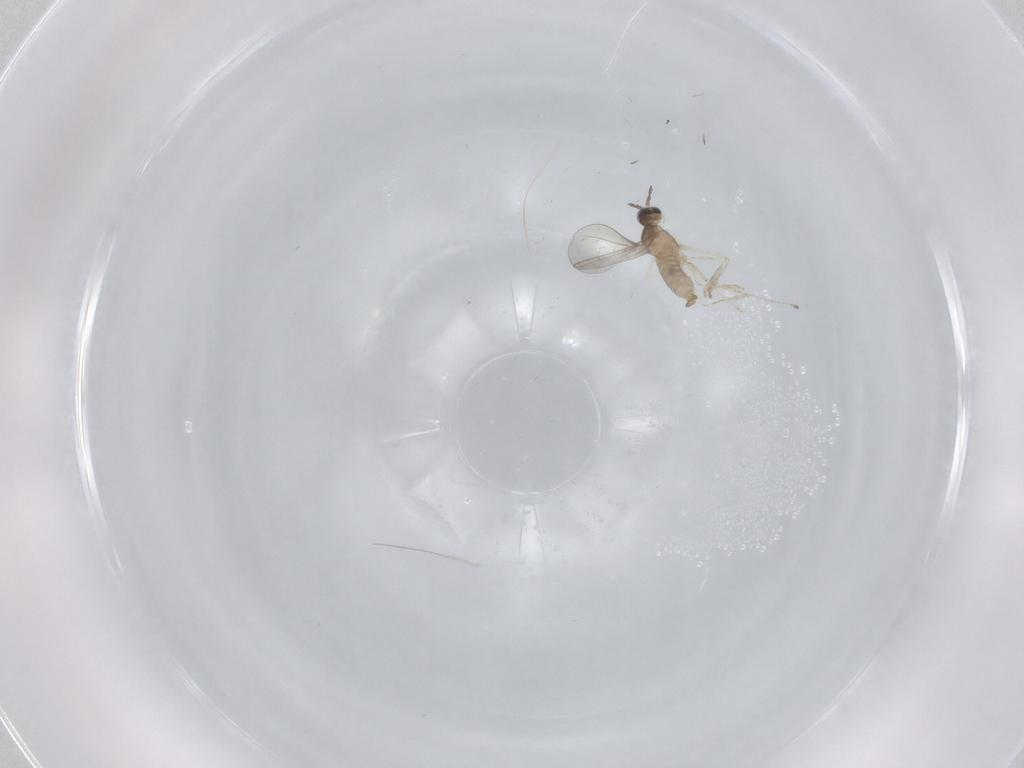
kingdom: Animalia
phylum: Arthropoda
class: Insecta
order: Diptera
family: Cecidomyiidae
